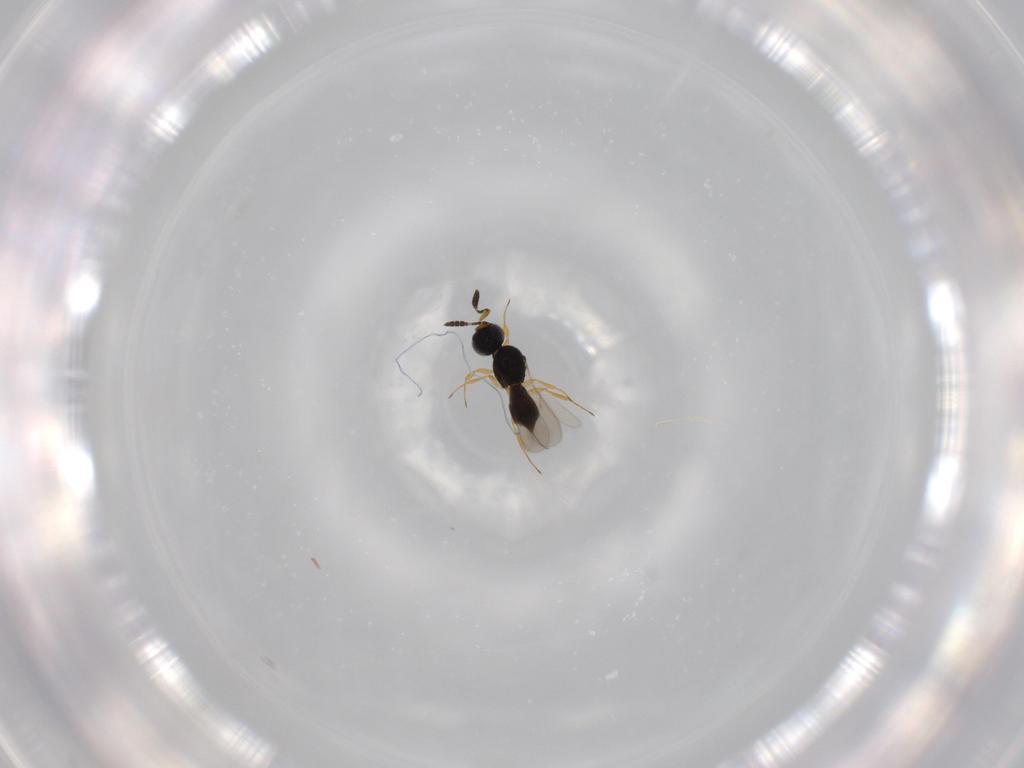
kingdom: Animalia
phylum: Arthropoda
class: Insecta
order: Hymenoptera
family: Scelionidae
